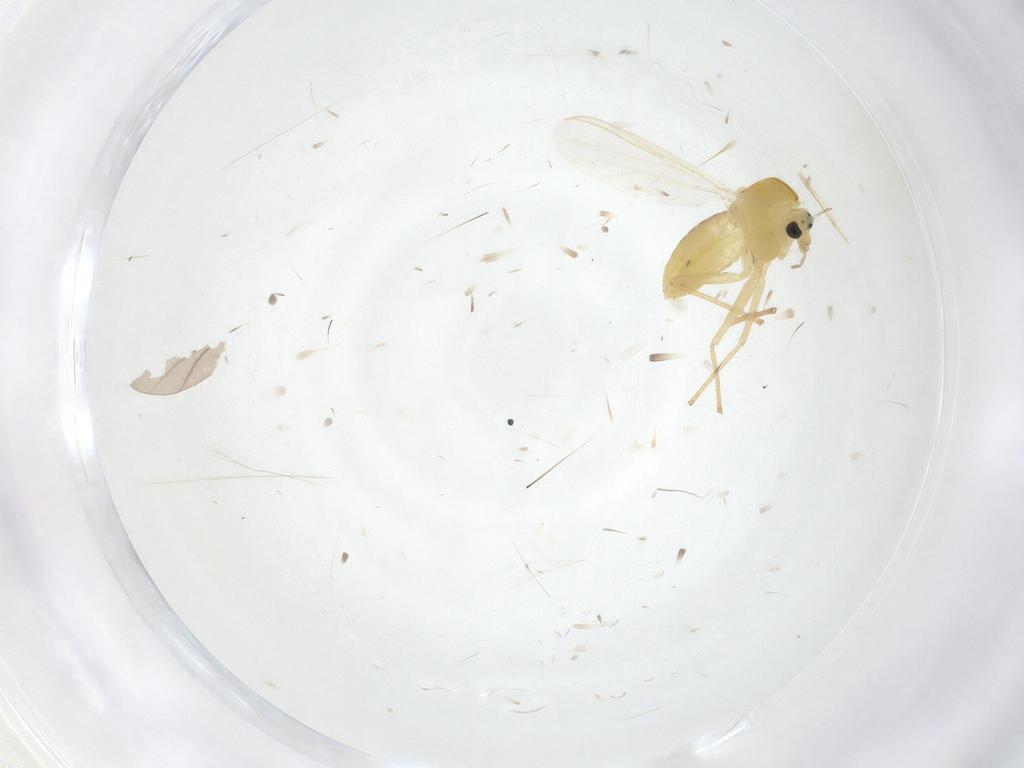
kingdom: Animalia
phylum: Arthropoda
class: Insecta
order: Diptera
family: Chironomidae
